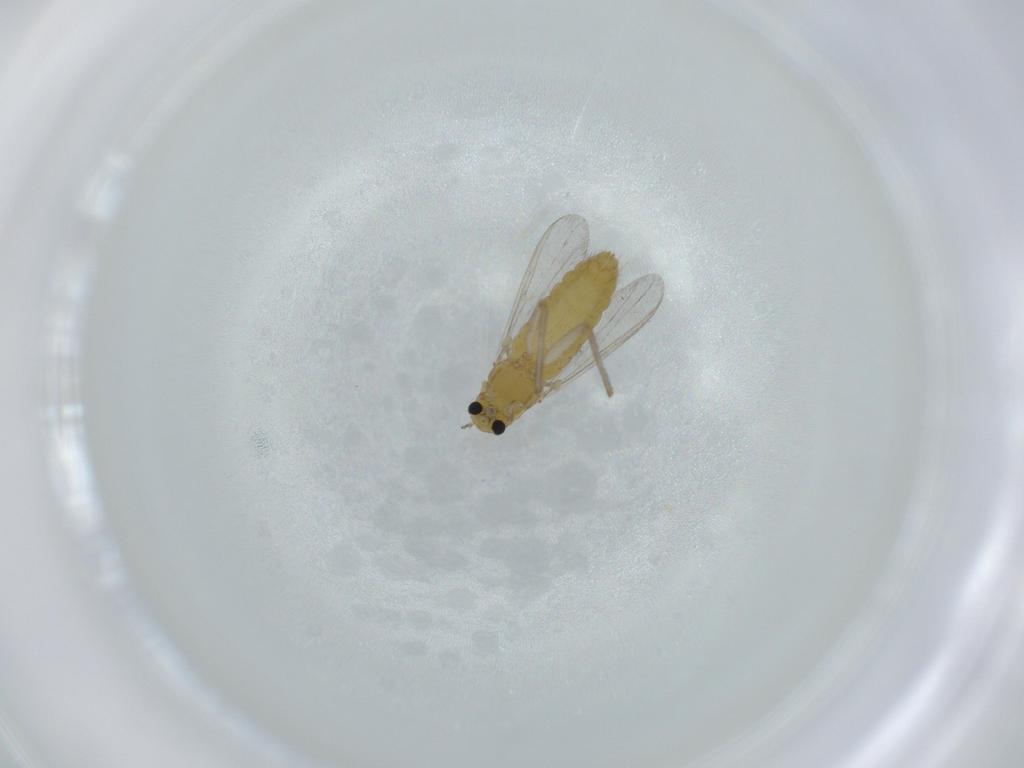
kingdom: Animalia
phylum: Arthropoda
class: Insecta
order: Diptera
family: Chironomidae
